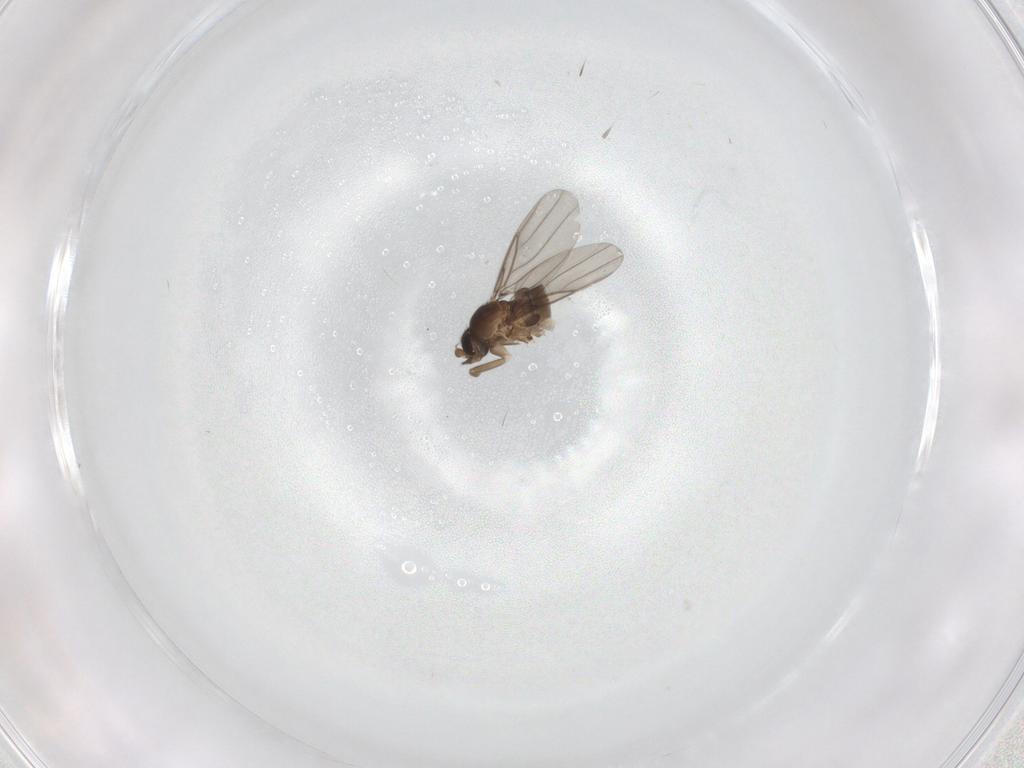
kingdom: Animalia
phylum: Arthropoda
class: Insecta
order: Diptera
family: Phoridae
